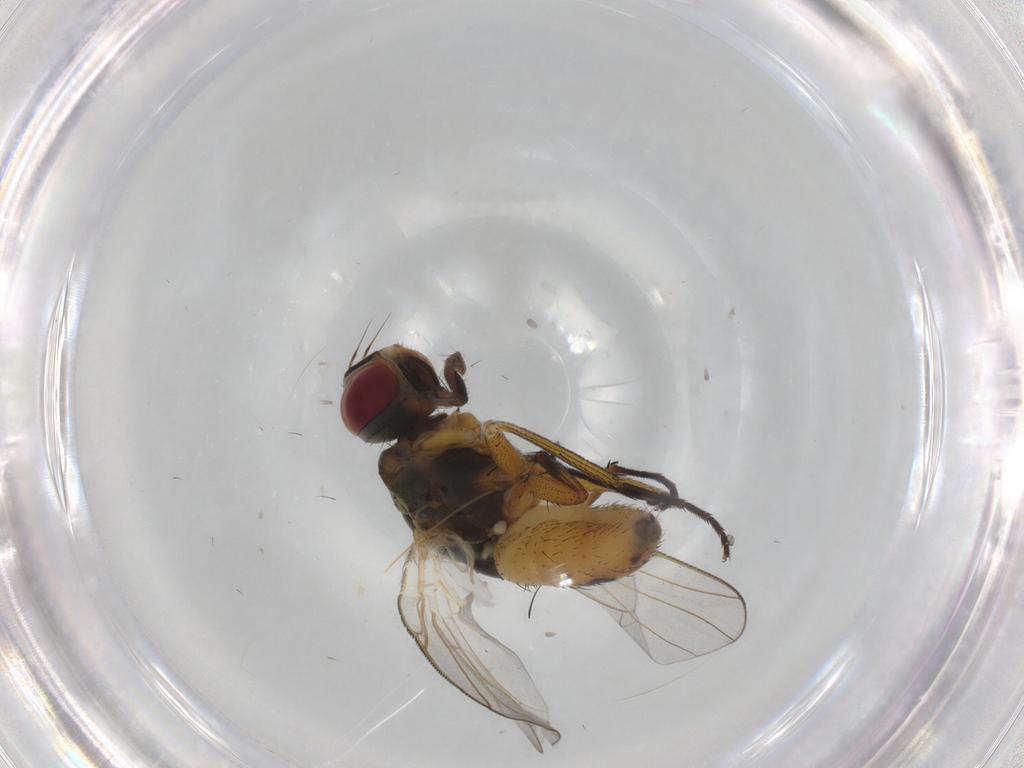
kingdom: Animalia
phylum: Arthropoda
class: Insecta
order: Diptera
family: Muscidae
